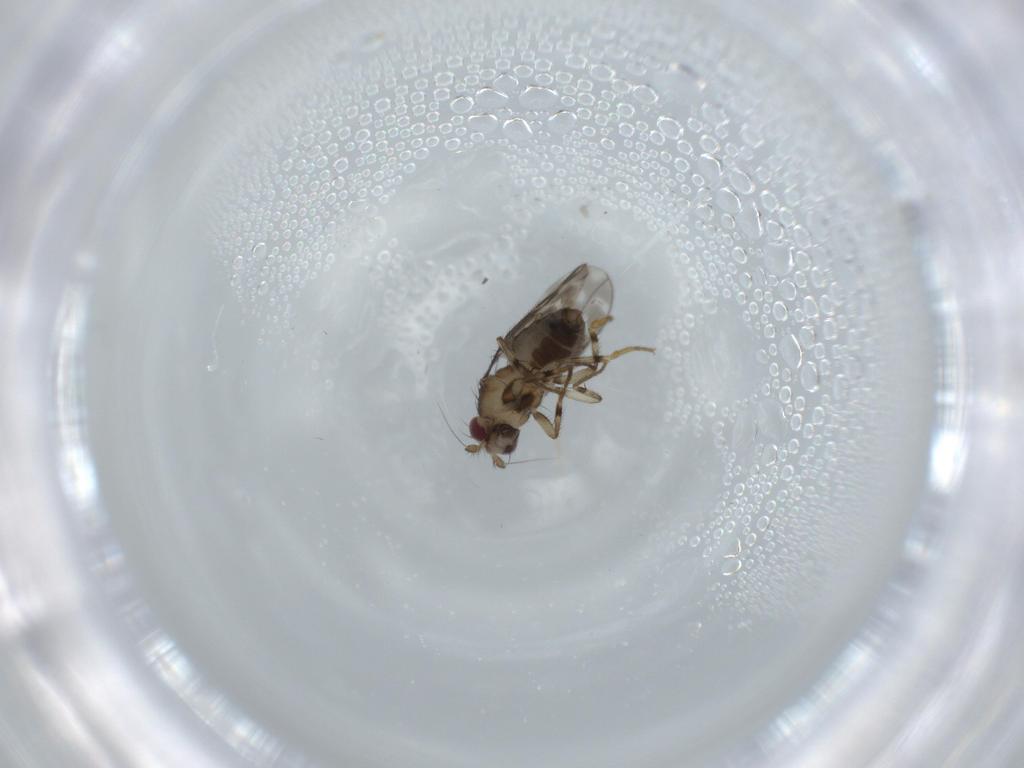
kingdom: Animalia
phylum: Arthropoda
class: Insecta
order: Diptera
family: Sphaeroceridae
